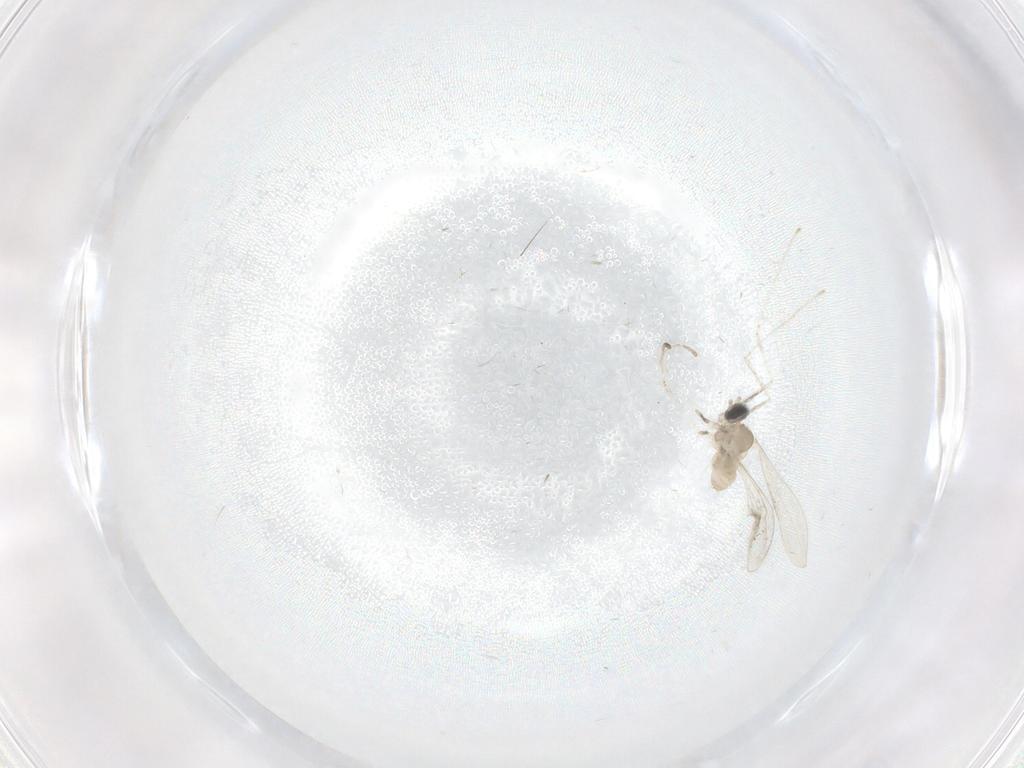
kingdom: Animalia
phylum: Arthropoda
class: Insecta
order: Diptera
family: Cecidomyiidae
